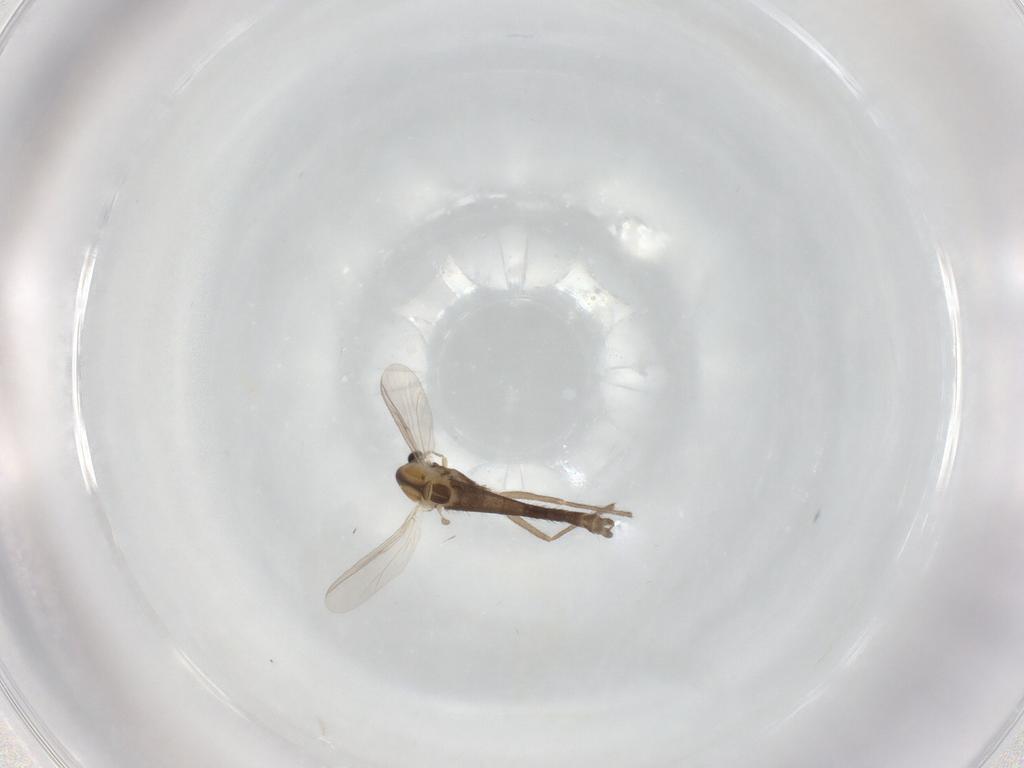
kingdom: Animalia
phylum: Arthropoda
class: Insecta
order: Diptera
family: Chironomidae
